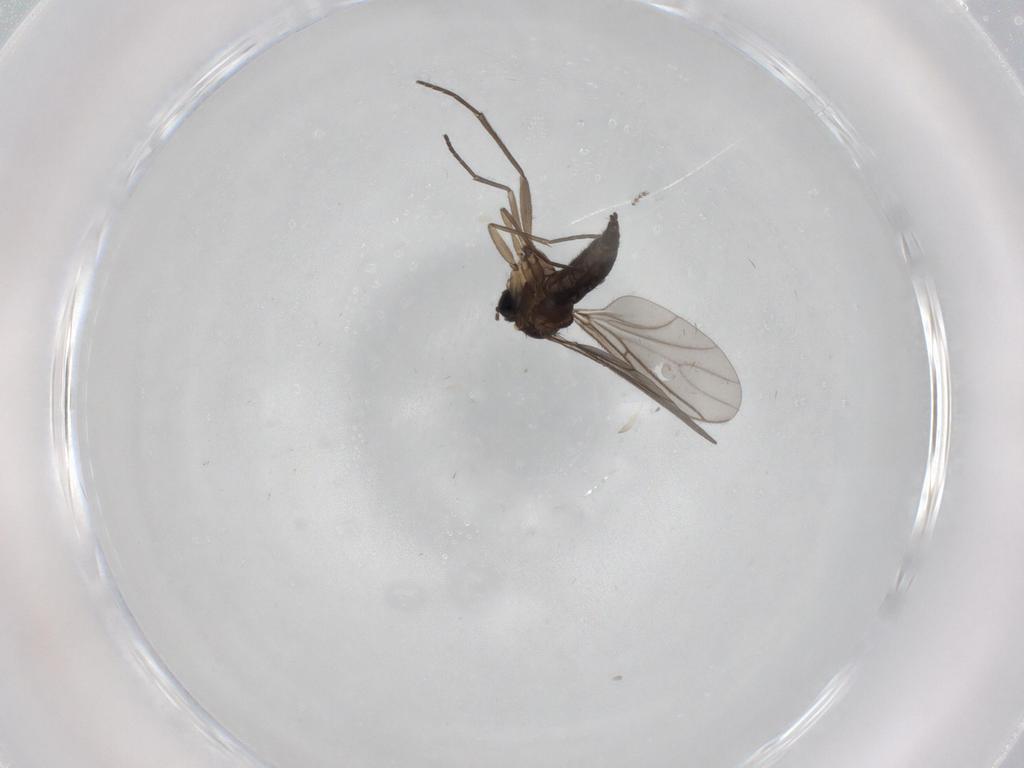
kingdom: Animalia
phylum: Arthropoda
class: Insecta
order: Diptera
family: Sciaridae
